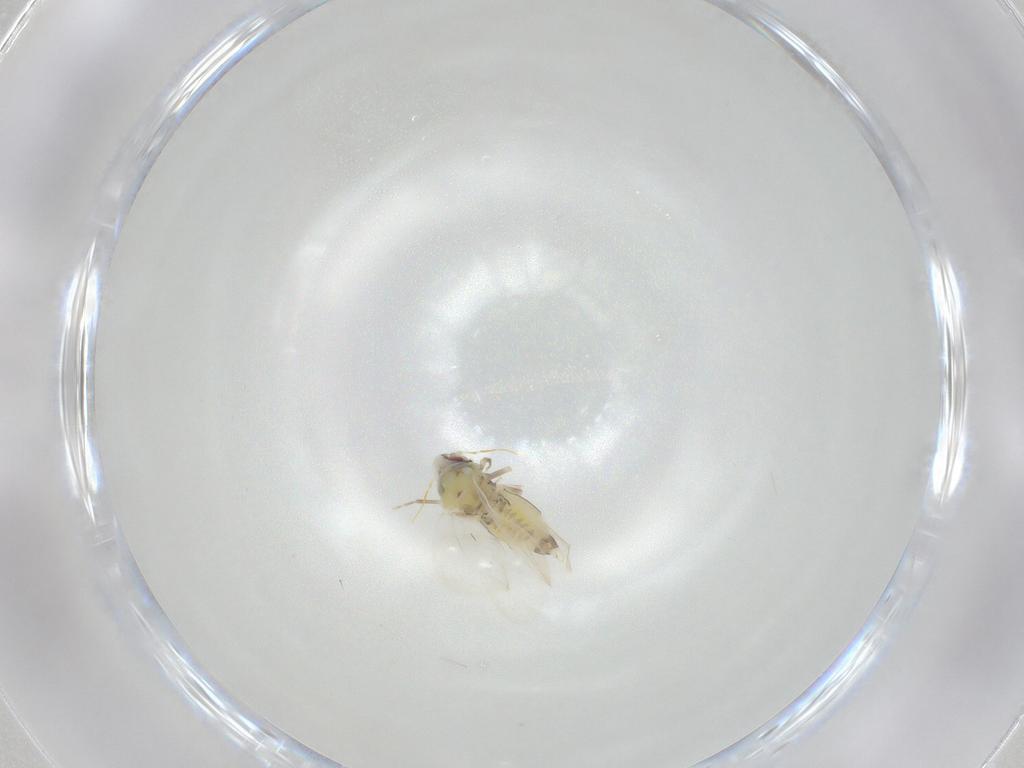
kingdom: Animalia
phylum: Arthropoda
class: Insecta
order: Hemiptera
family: Aleyrodidae
